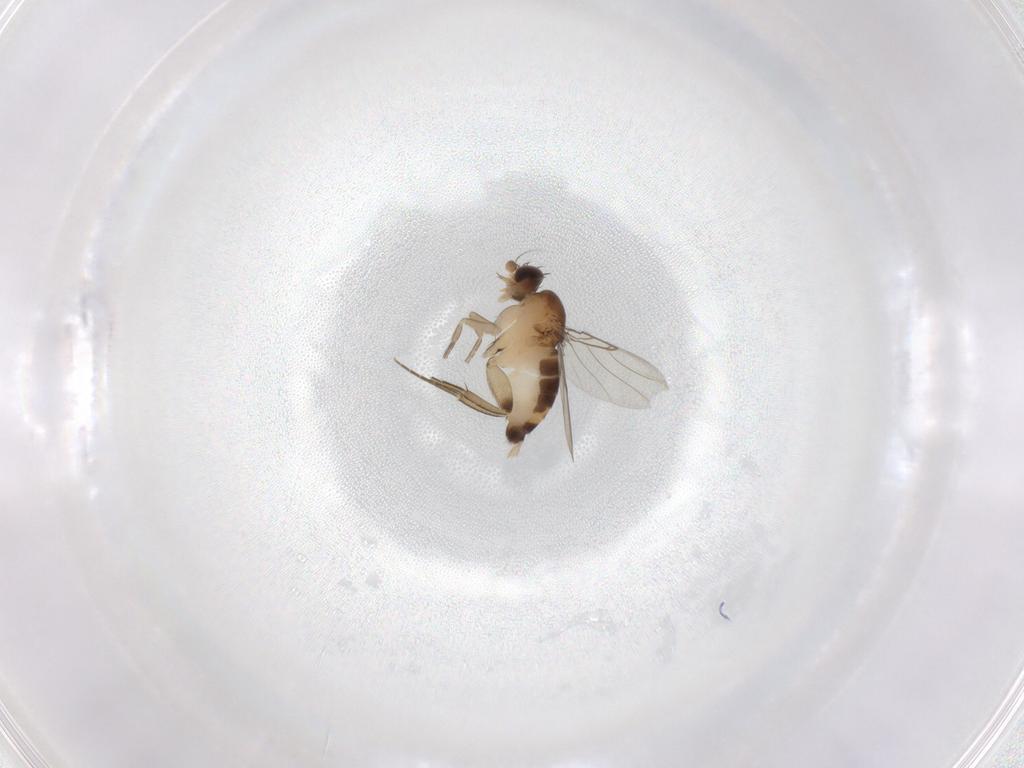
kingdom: Animalia
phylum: Arthropoda
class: Insecta
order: Diptera
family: Phoridae
